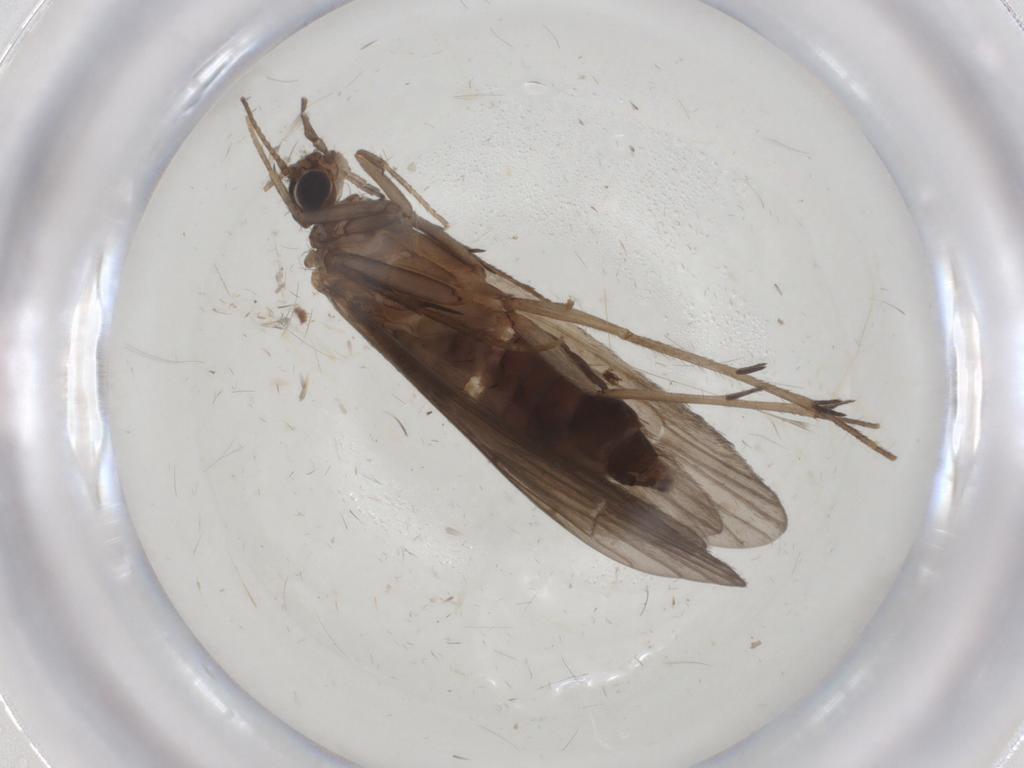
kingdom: Animalia
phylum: Arthropoda
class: Insecta
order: Trichoptera
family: Philopotamidae
